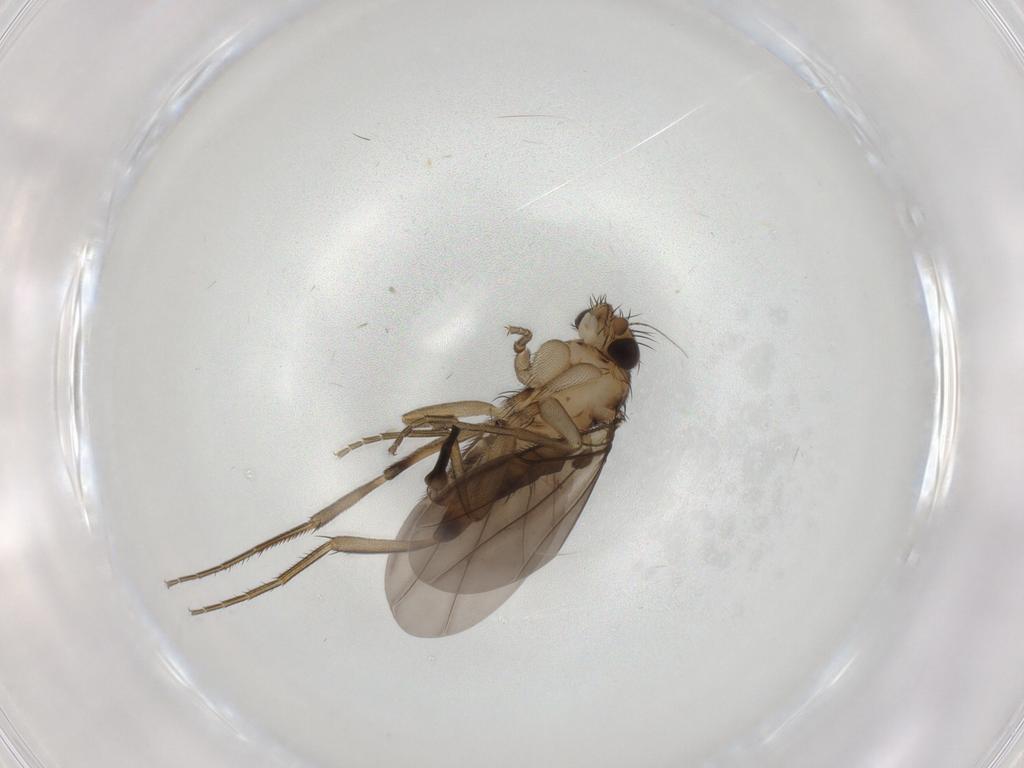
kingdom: Animalia
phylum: Arthropoda
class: Insecta
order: Diptera
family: Phoridae
